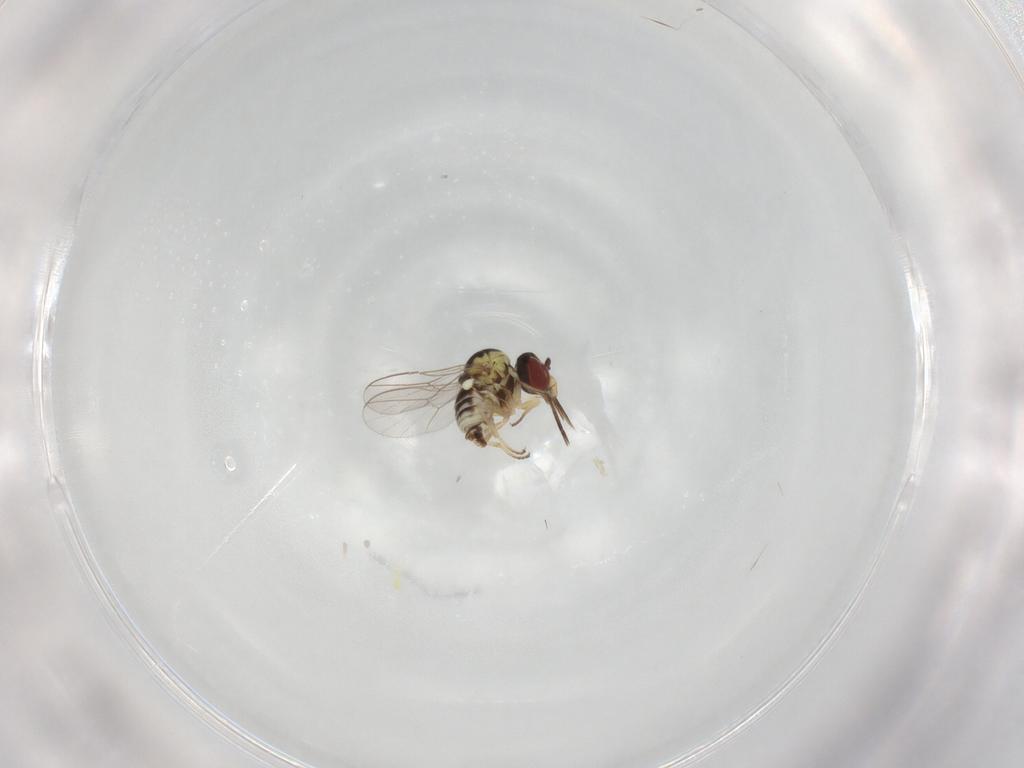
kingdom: Animalia
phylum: Arthropoda
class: Insecta
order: Diptera
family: Bombyliidae
